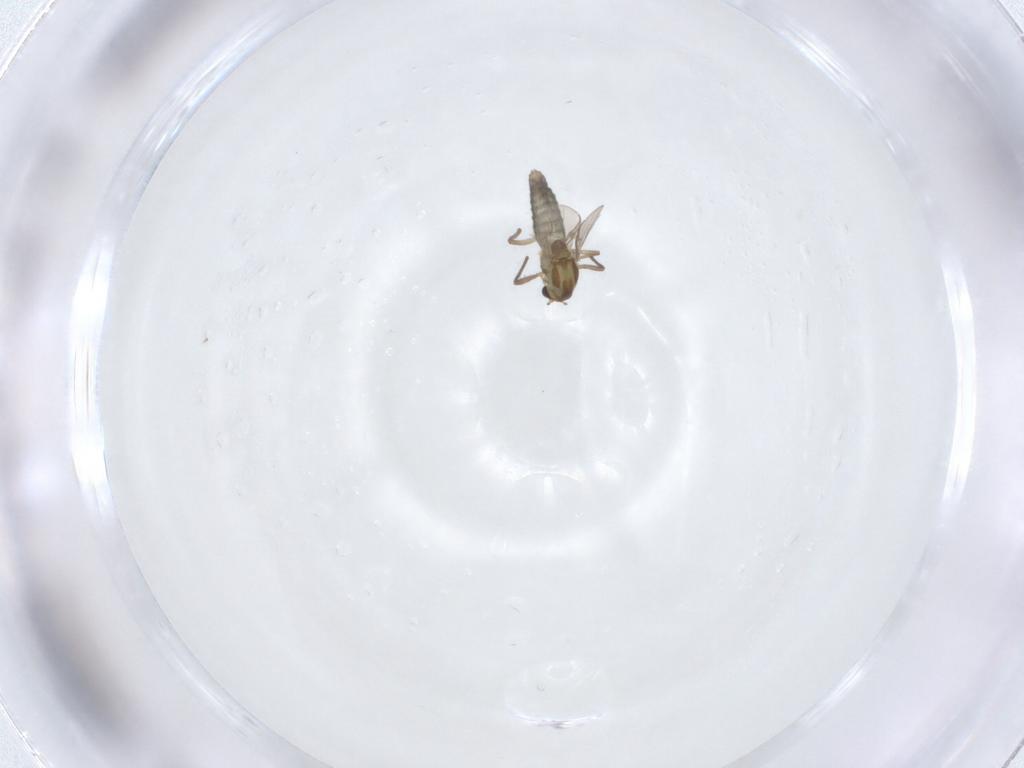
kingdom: Animalia
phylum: Arthropoda
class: Insecta
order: Diptera
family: Chironomidae
